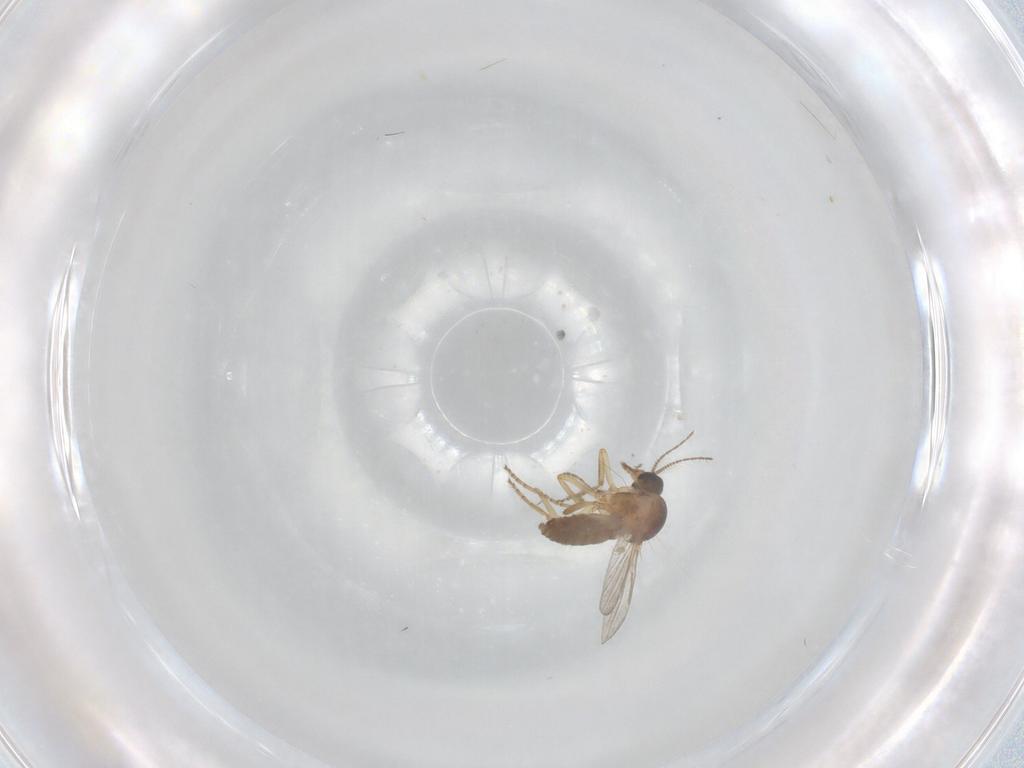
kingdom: Animalia
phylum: Arthropoda
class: Insecta
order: Diptera
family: Ceratopogonidae
